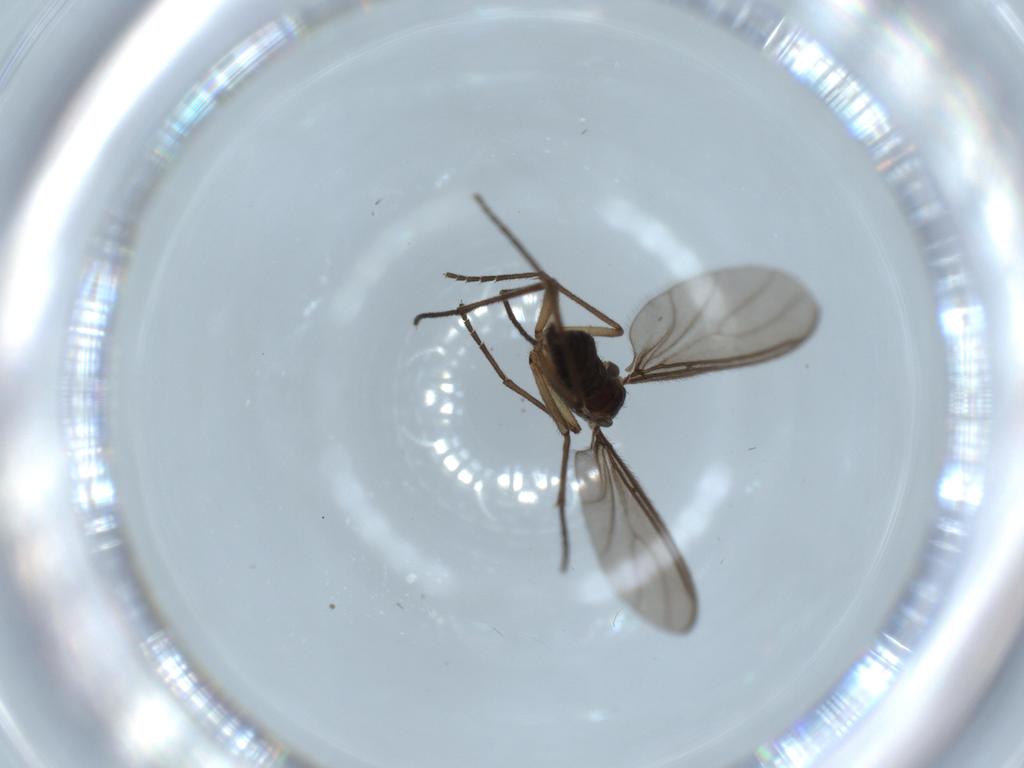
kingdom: Animalia
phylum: Arthropoda
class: Insecta
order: Diptera
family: Sciaridae
